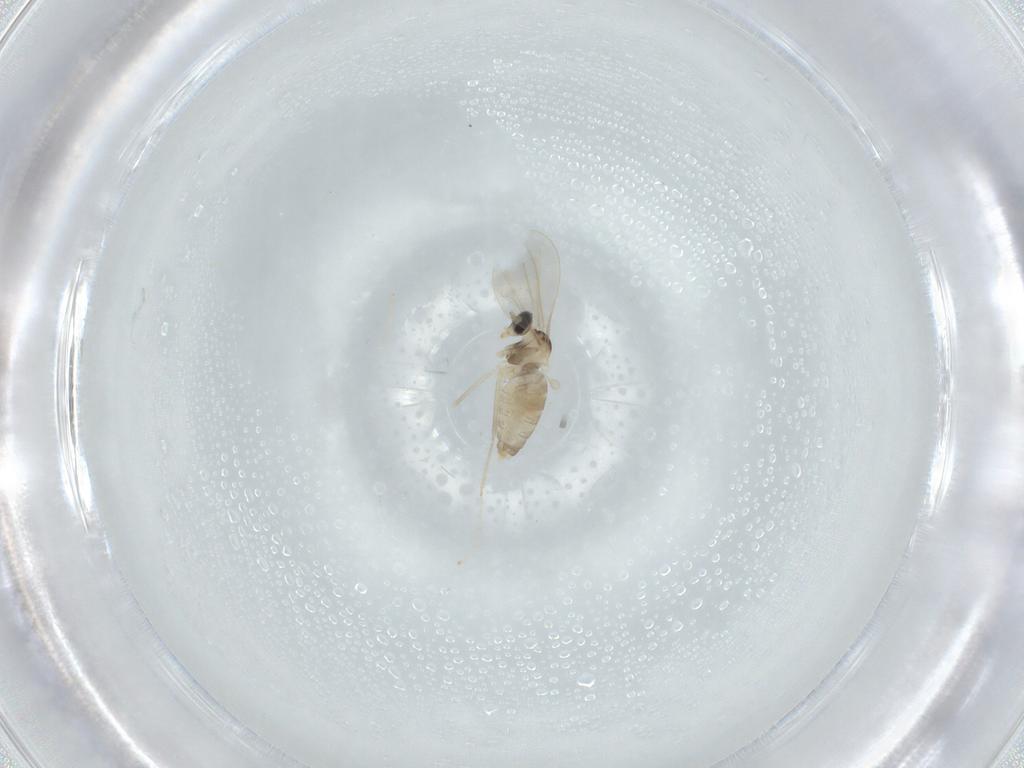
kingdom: Animalia
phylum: Arthropoda
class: Insecta
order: Diptera
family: Cecidomyiidae
